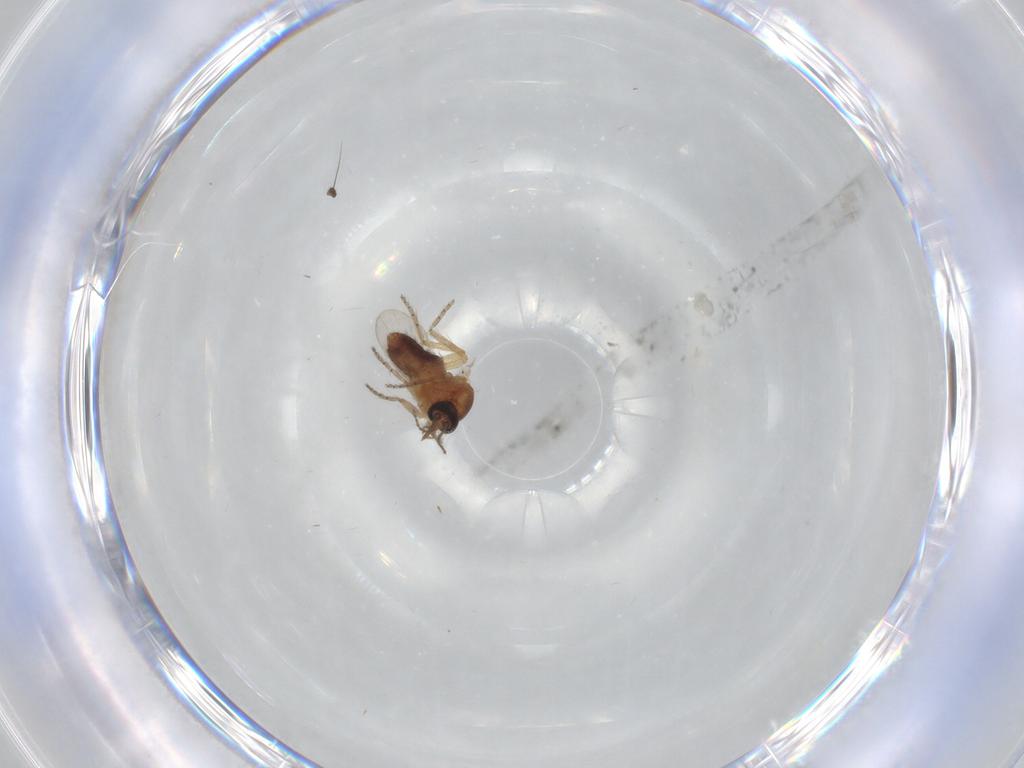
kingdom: Animalia
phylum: Arthropoda
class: Insecta
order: Diptera
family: Ceratopogonidae
